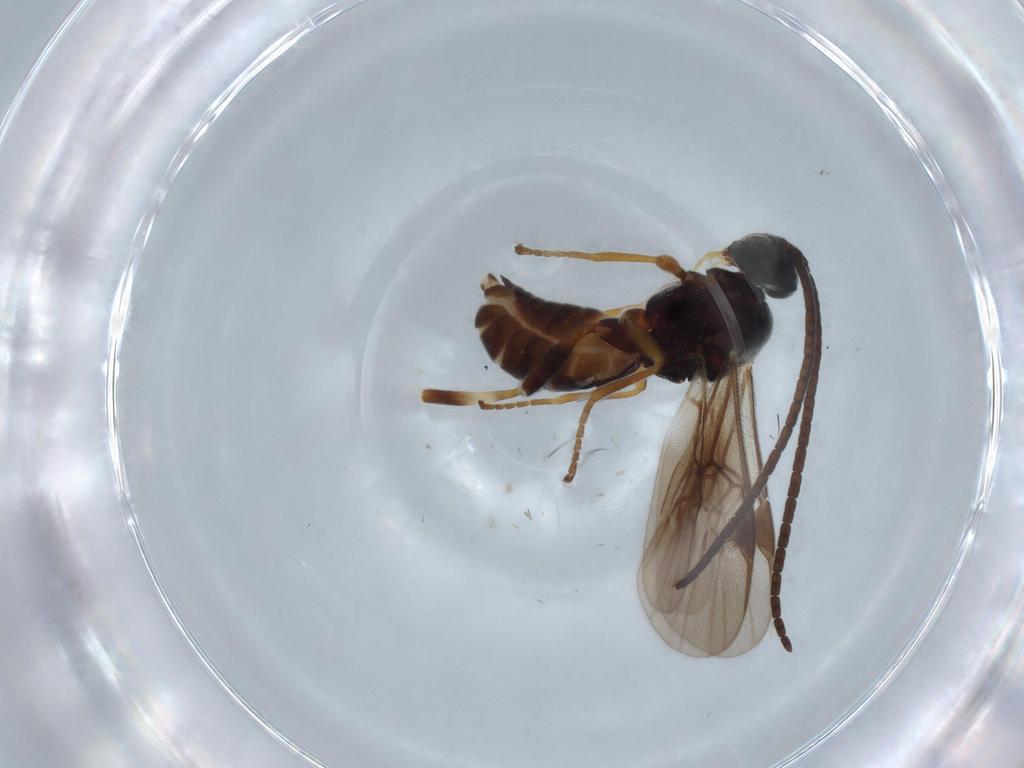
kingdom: Animalia
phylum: Arthropoda
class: Insecta
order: Hymenoptera
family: Braconidae
